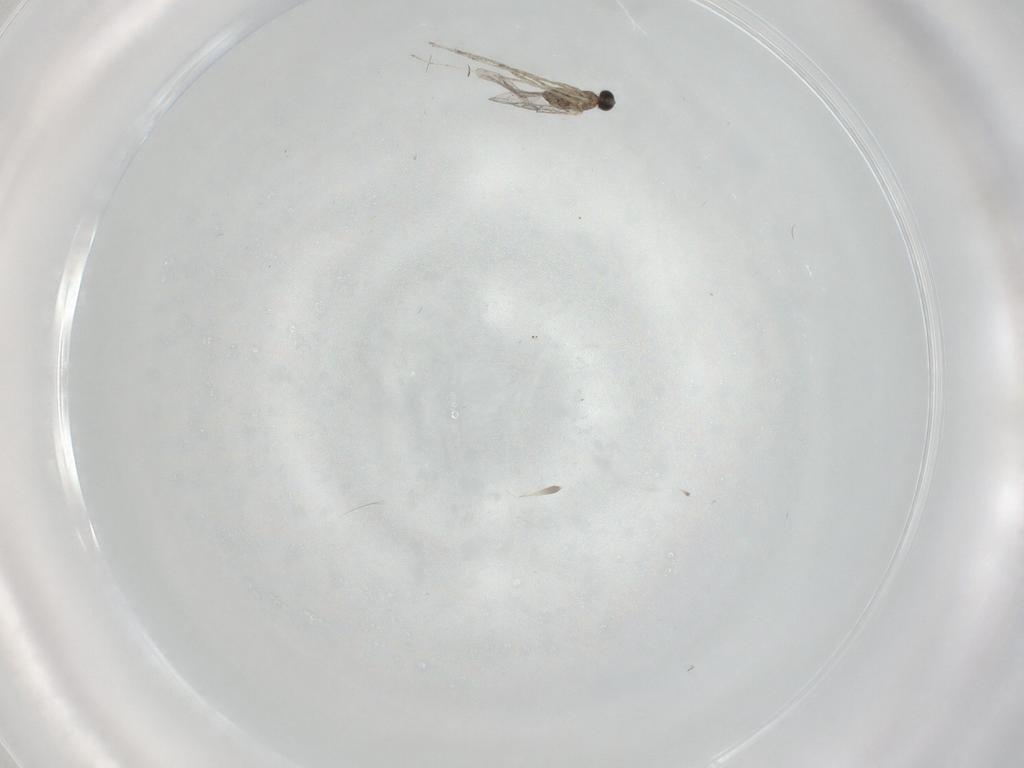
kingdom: Animalia
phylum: Arthropoda
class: Insecta
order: Diptera
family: Cecidomyiidae
